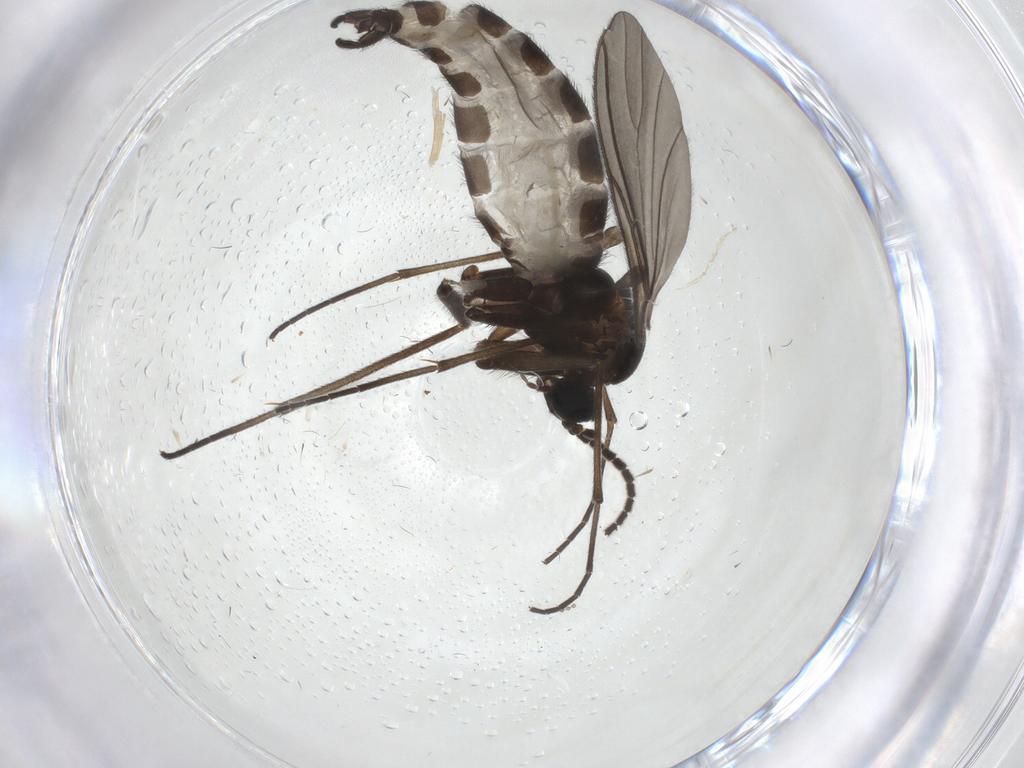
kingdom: Animalia
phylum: Arthropoda
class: Insecta
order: Diptera
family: Sciaridae
